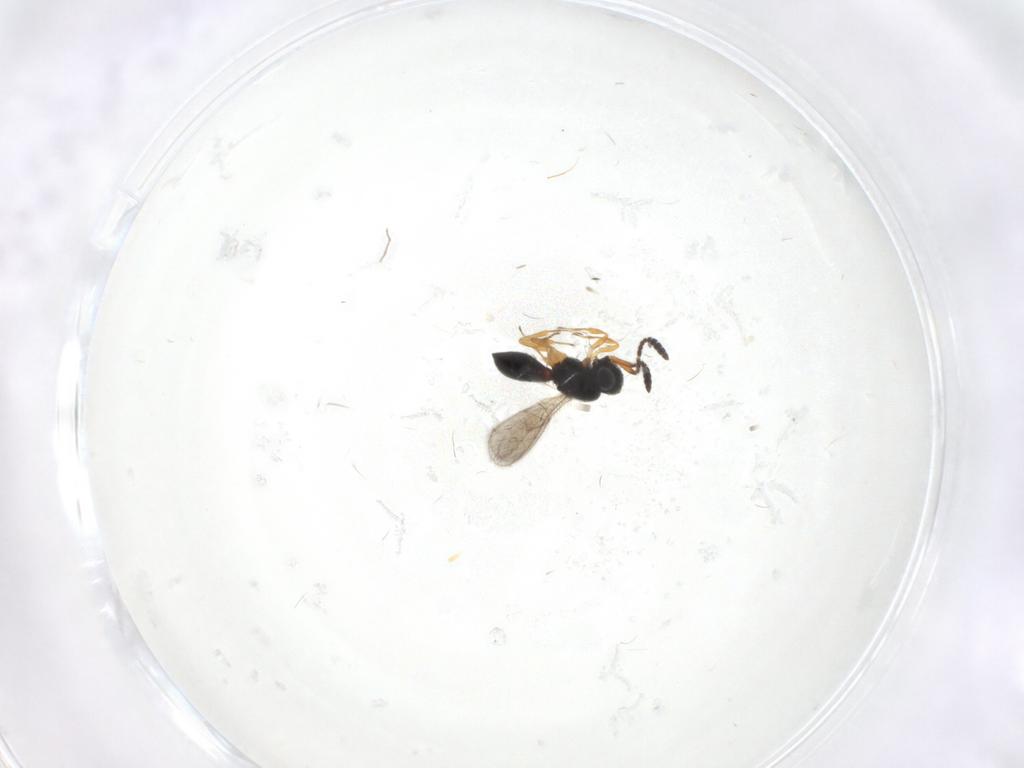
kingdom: Animalia
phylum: Arthropoda
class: Insecta
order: Hymenoptera
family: Scelionidae
